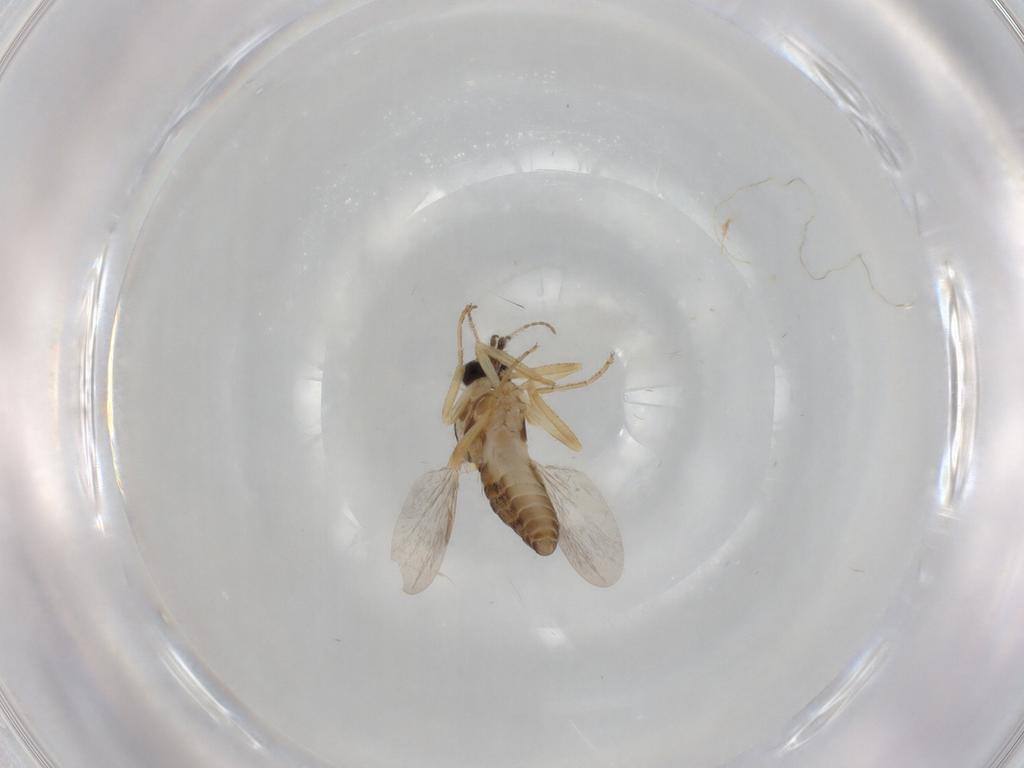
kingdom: Animalia
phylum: Arthropoda
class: Insecta
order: Diptera
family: Ceratopogonidae
